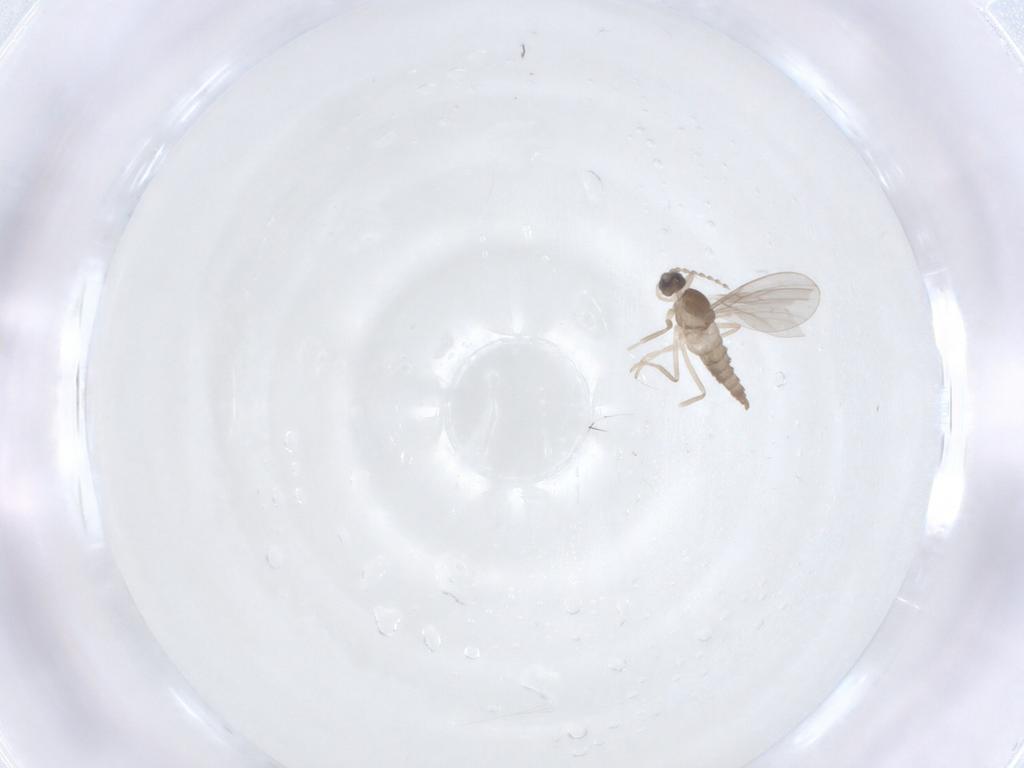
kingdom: Animalia
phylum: Arthropoda
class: Insecta
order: Diptera
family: Cecidomyiidae
